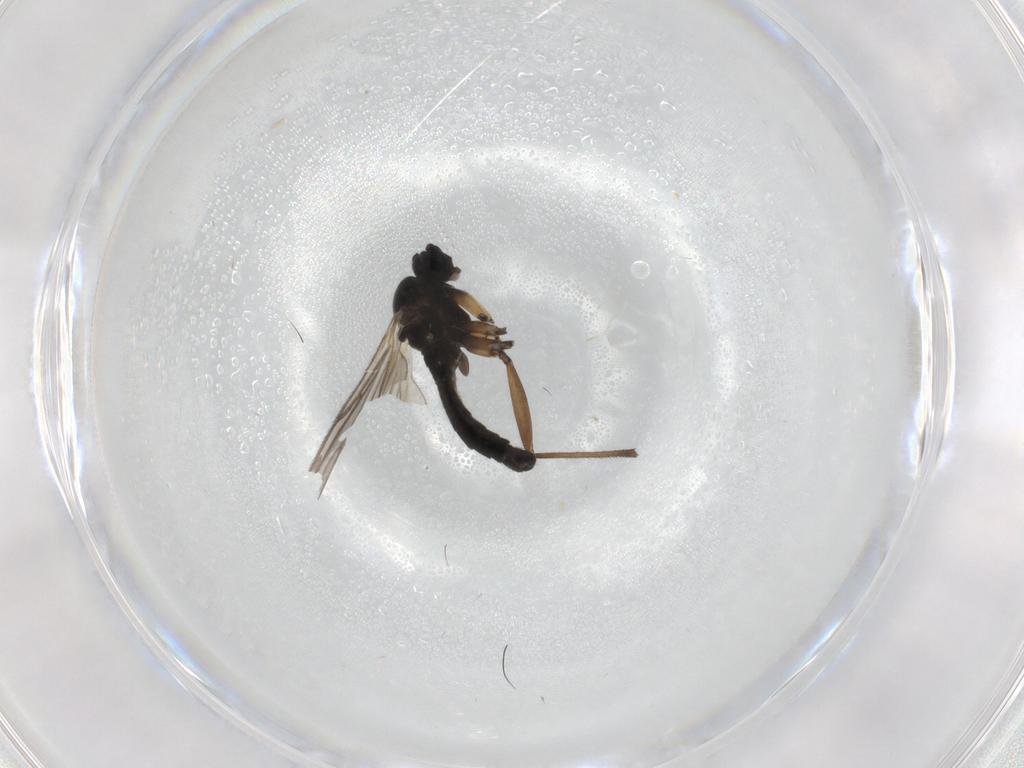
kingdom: Animalia
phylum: Arthropoda
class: Insecta
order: Diptera
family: Sciaridae
